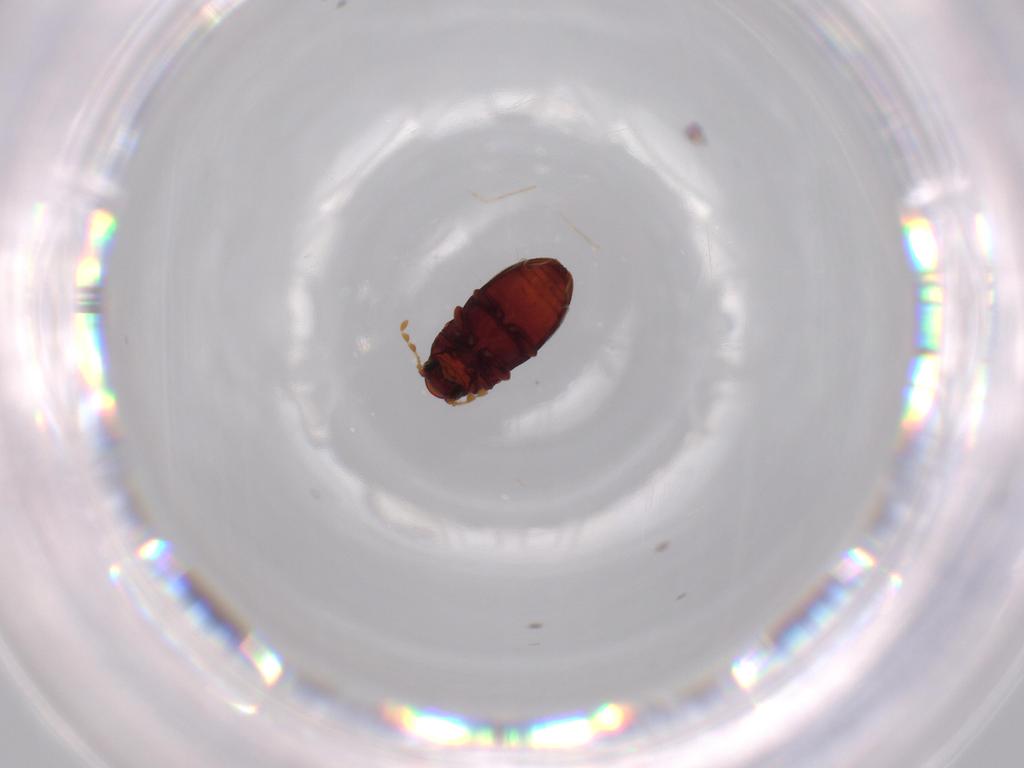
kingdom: Animalia
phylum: Arthropoda
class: Insecta
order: Coleoptera
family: Ptinidae
